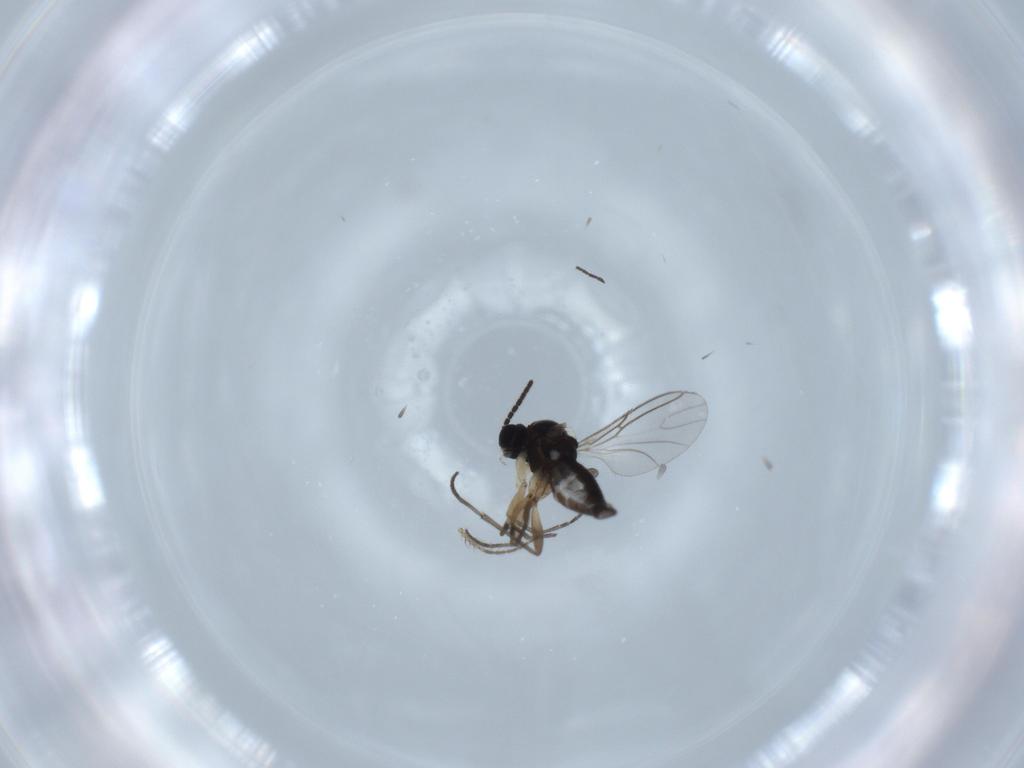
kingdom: Animalia
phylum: Arthropoda
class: Insecta
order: Diptera
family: Sciaridae
